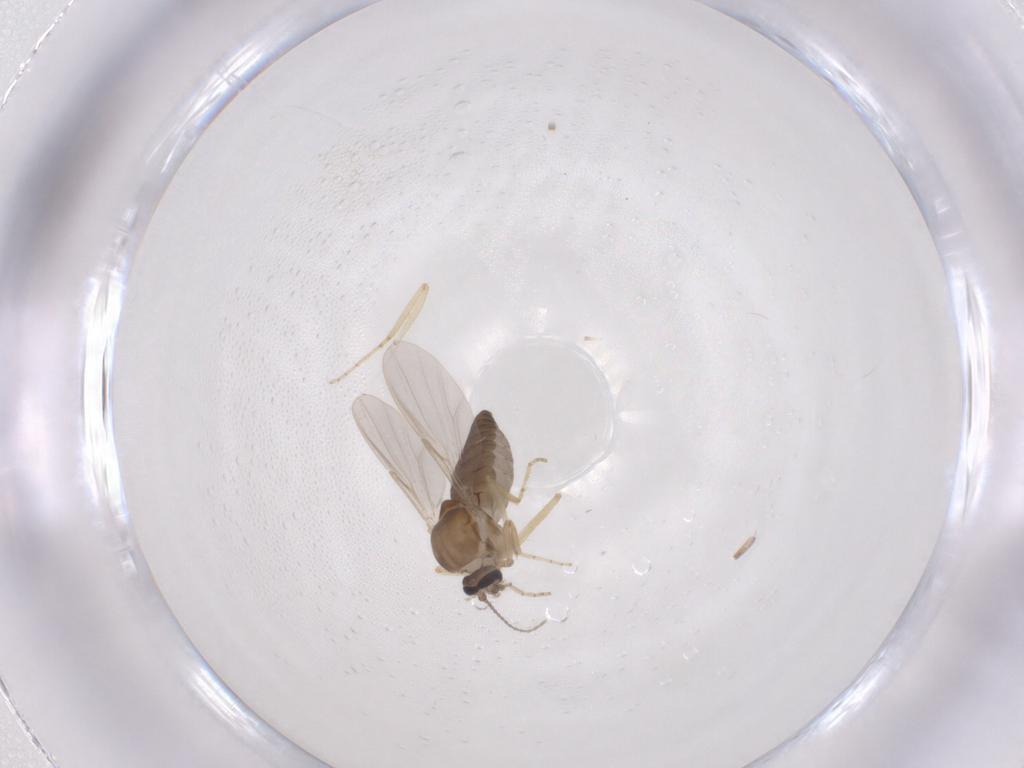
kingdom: Animalia
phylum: Arthropoda
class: Insecta
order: Diptera
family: Ceratopogonidae
